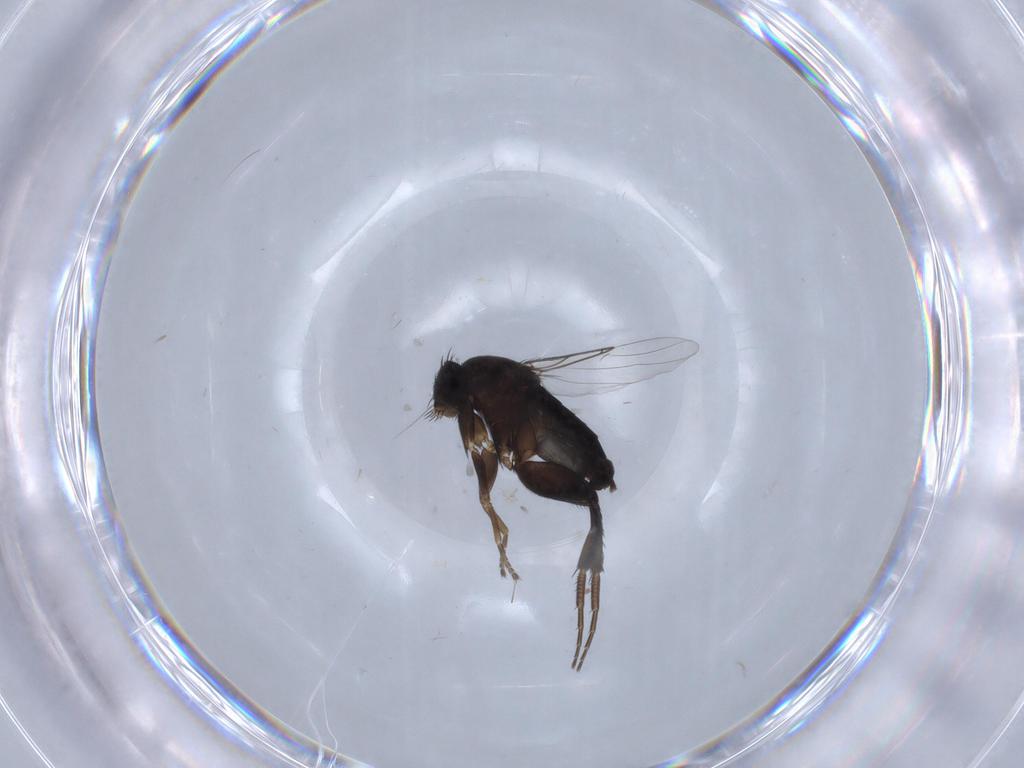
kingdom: Animalia
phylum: Arthropoda
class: Insecta
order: Diptera
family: Phoridae
